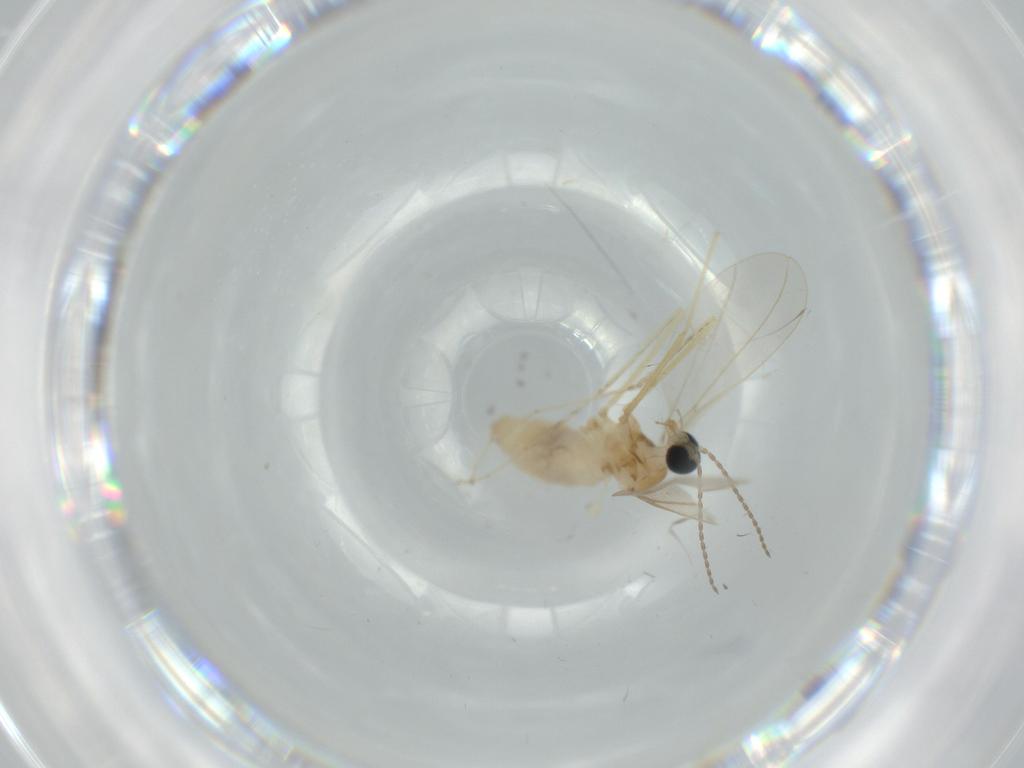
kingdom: Animalia
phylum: Arthropoda
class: Insecta
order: Diptera
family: Cecidomyiidae
